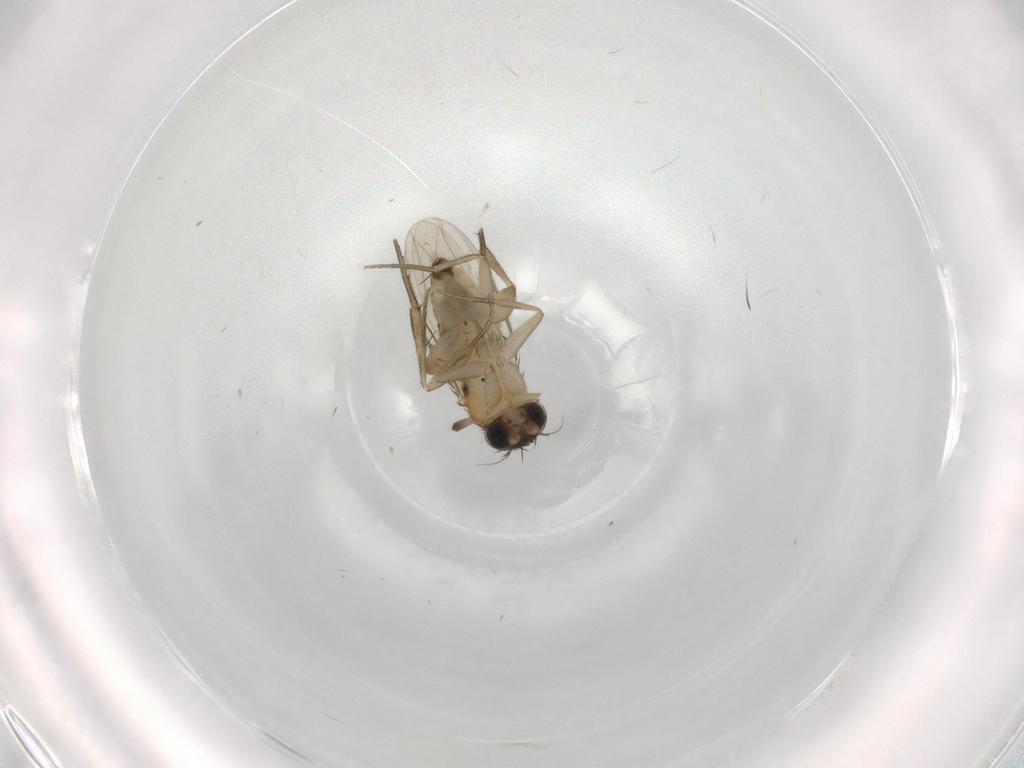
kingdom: Animalia
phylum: Arthropoda
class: Insecta
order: Diptera
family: Phoridae
